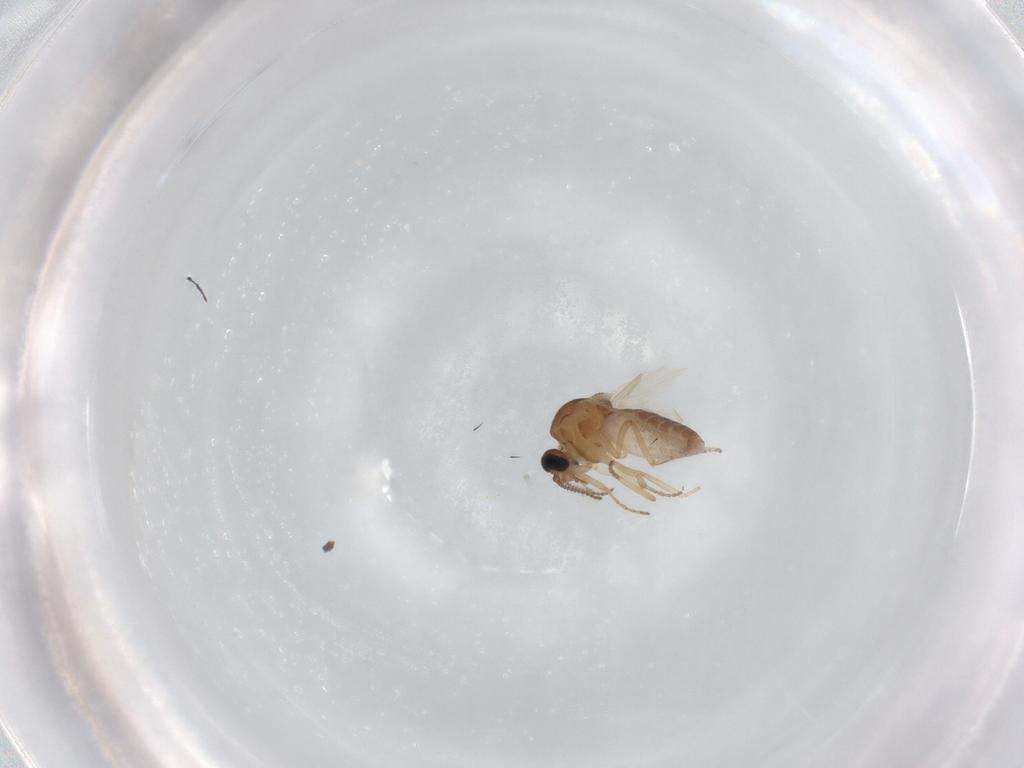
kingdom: Animalia
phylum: Arthropoda
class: Insecta
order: Diptera
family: Ceratopogonidae
